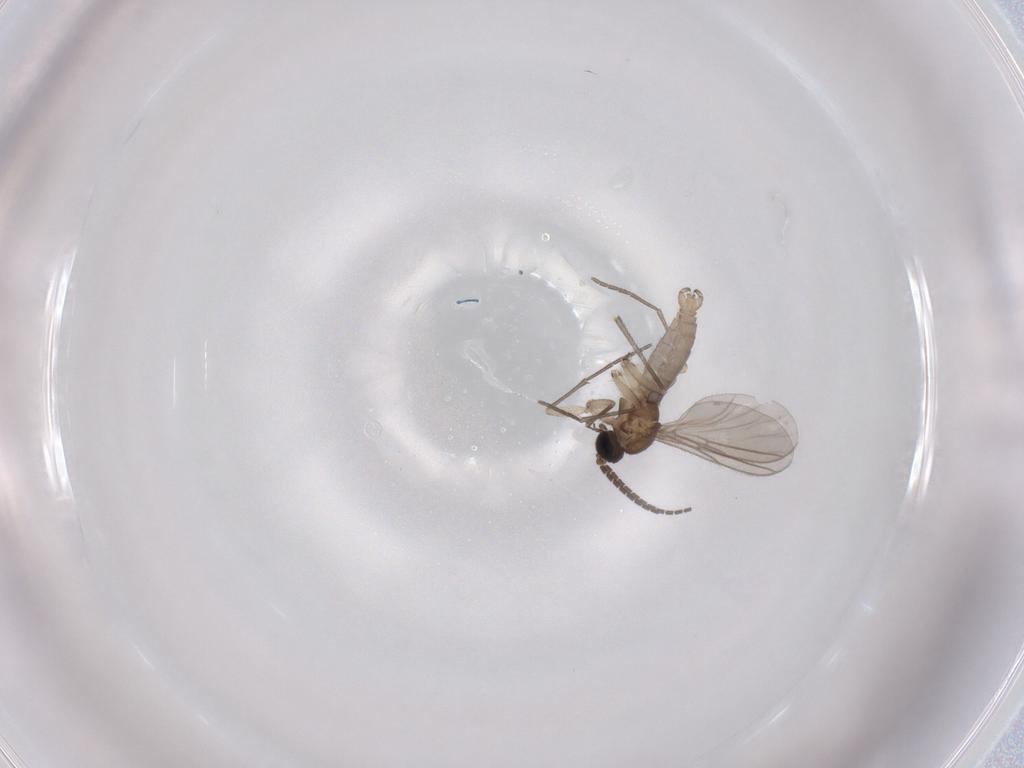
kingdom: Animalia
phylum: Arthropoda
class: Insecta
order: Diptera
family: Sciaridae
